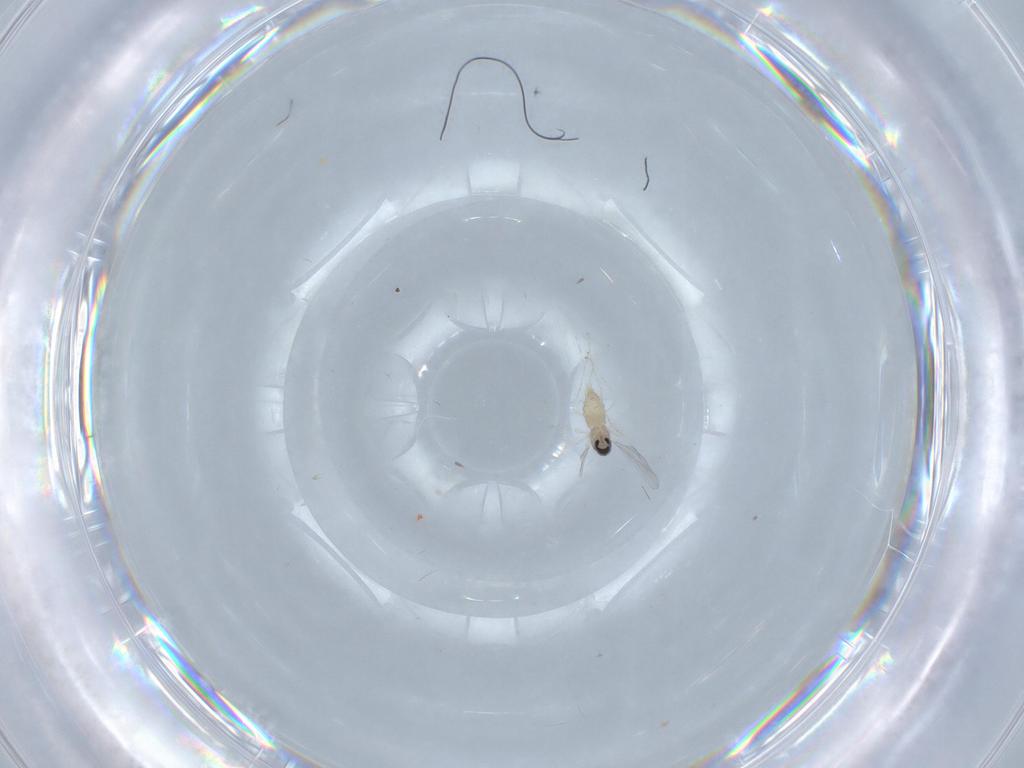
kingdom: Animalia
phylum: Arthropoda
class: Insecta
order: Diptera
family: Cecidomyiidae
